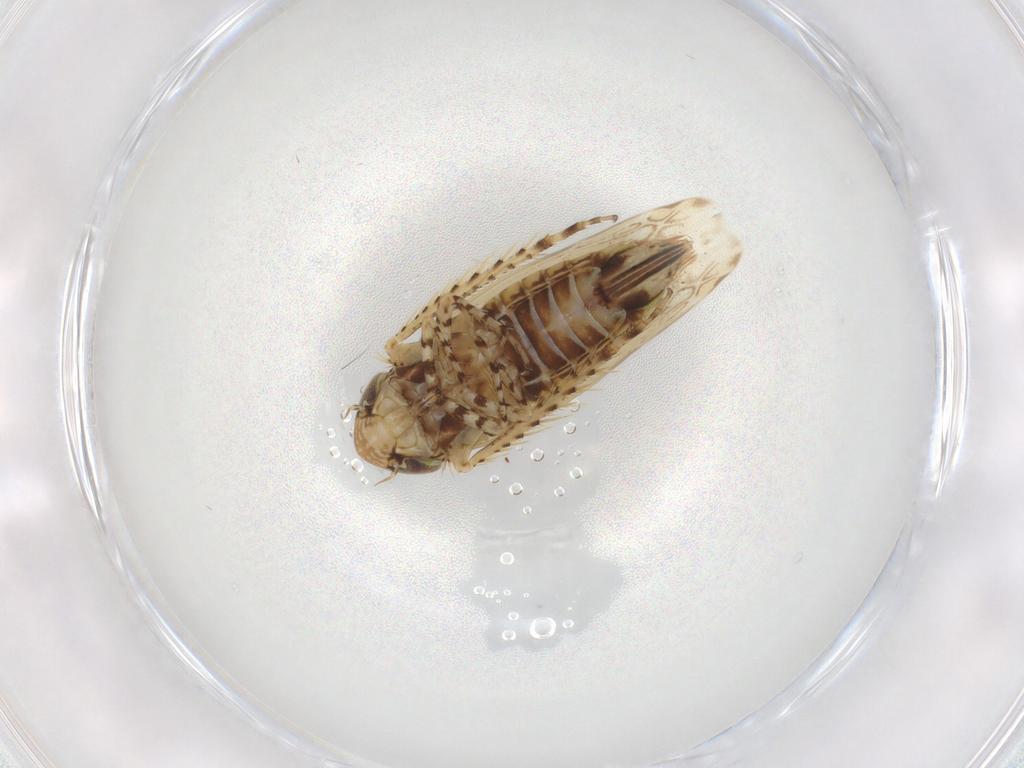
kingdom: Animalia
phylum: Arthropoda
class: Insecta
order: Hemiptera
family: Cicadellidae
